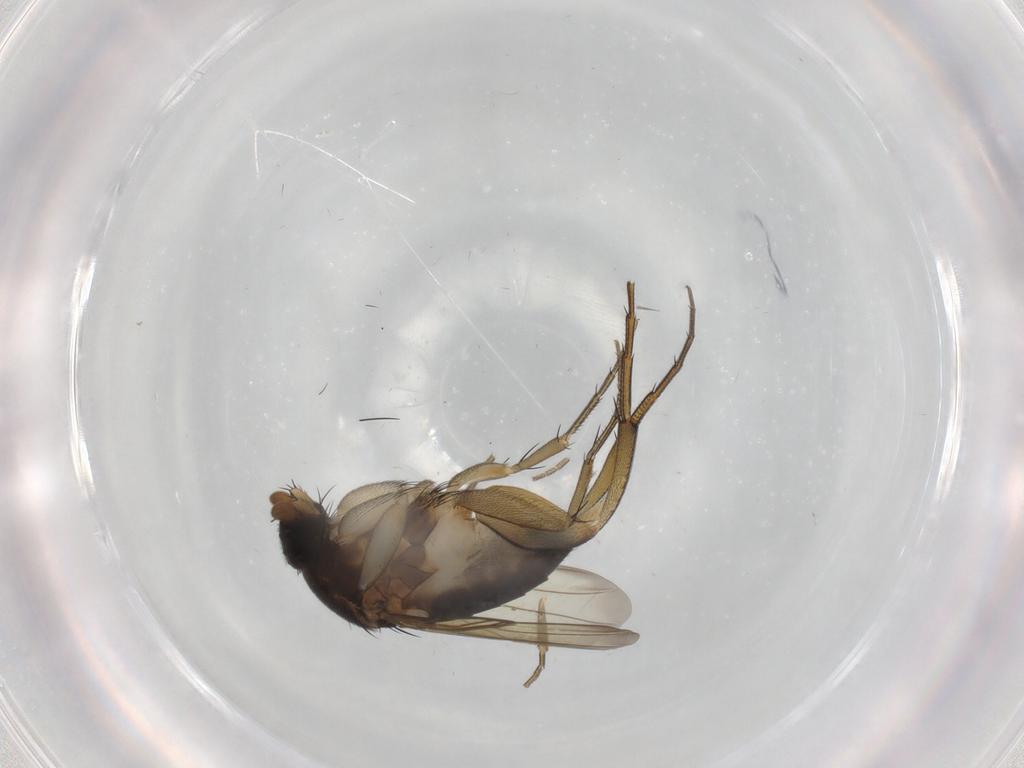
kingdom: Animalia
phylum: Arthropoda
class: Insecta
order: Diptera
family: Phoridae
